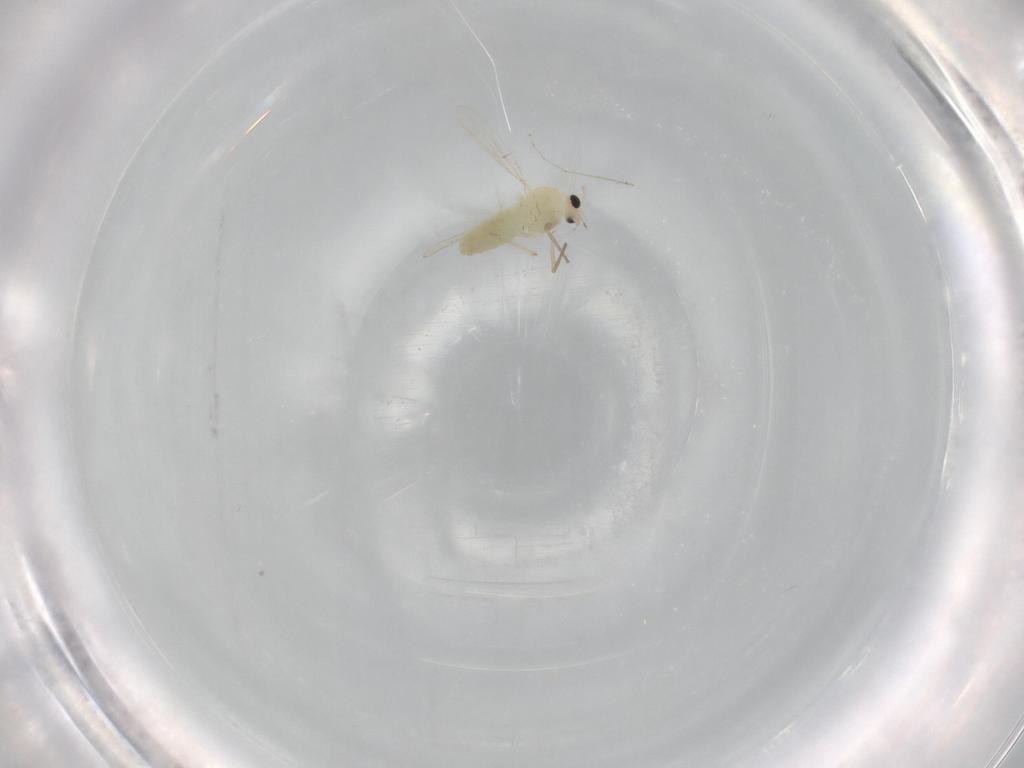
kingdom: Animalia
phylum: Arthropoda
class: Insecta
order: Diptera
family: Chironomidae
